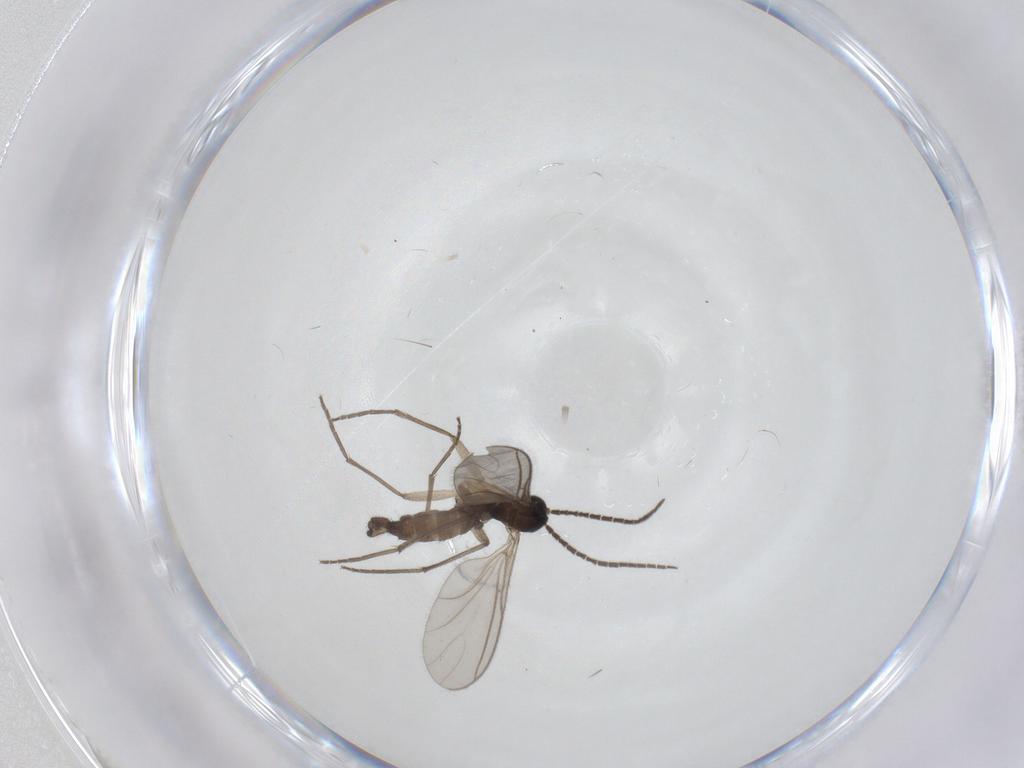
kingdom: Animalia
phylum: Arthropoda
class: Insecta
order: Diptera
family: Sciaridae
